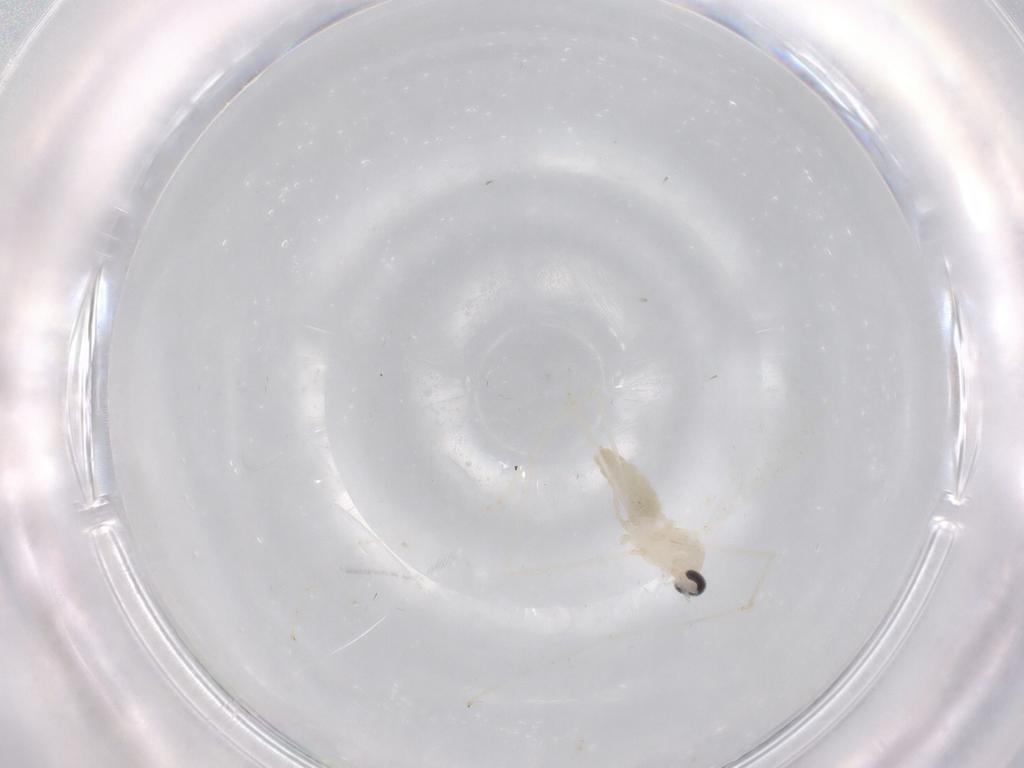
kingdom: Animalia
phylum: Arthropoda
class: Insecta
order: Diptera
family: Cecidomyiidae
